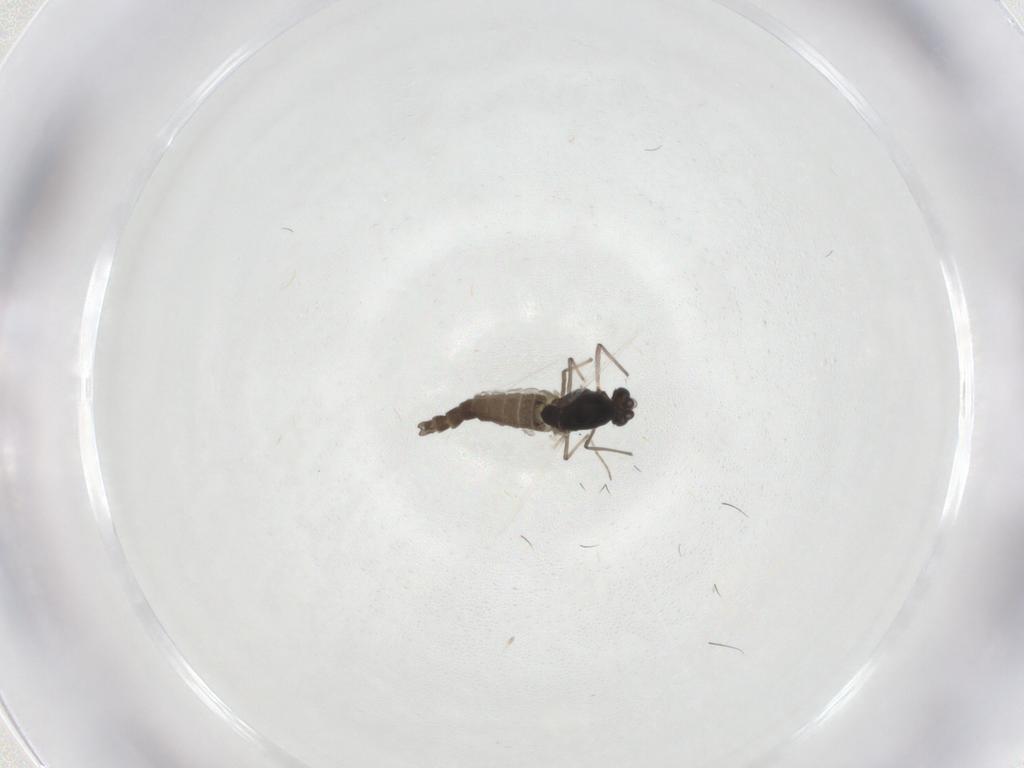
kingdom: Animalia
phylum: Arthropoda
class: Insecta
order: Diptera
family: Chironomidae
